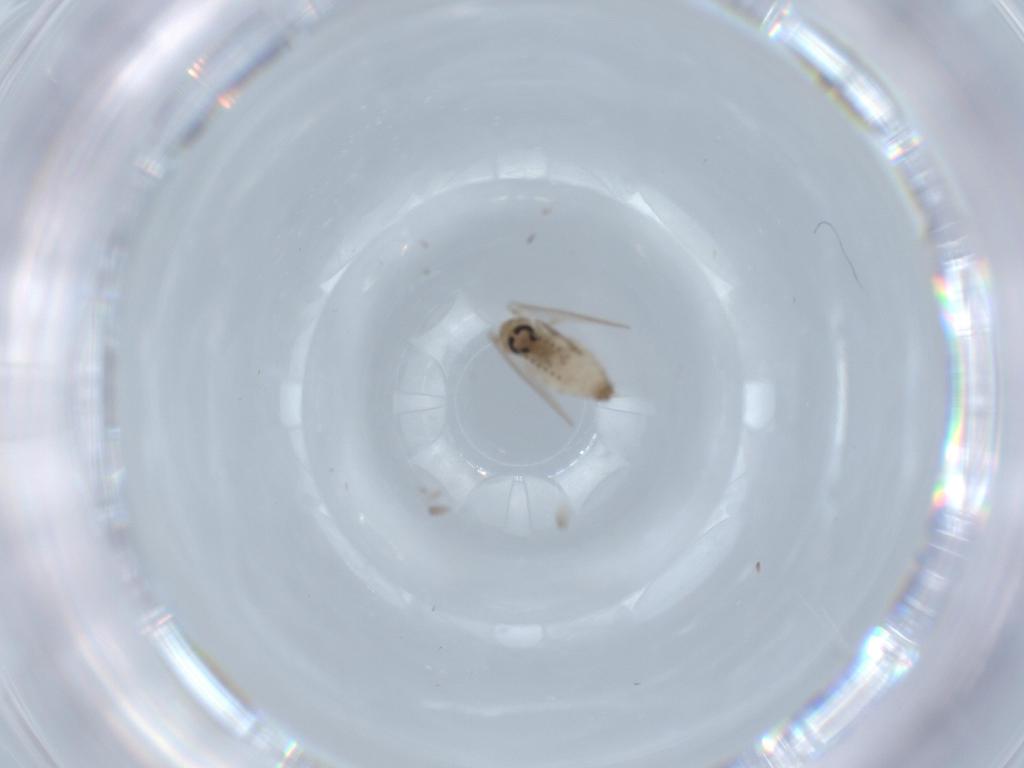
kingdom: Animalia
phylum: Arthropoda
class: Insecta
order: Diptera
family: Psychodidae
